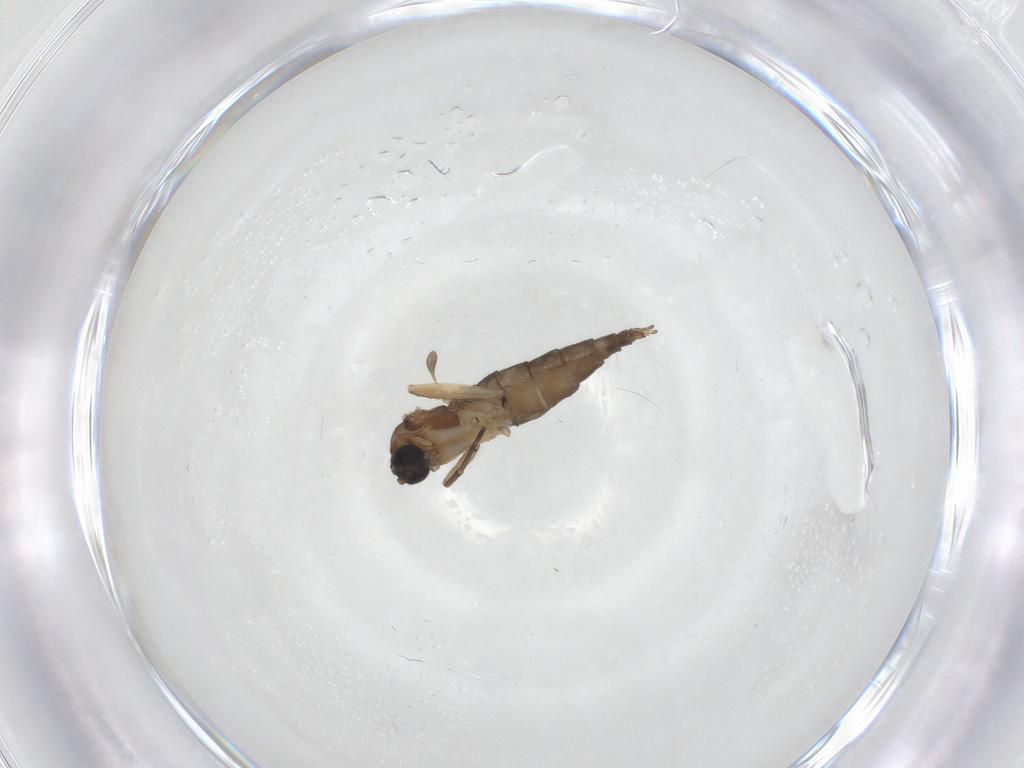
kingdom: Animalia
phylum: Arthropoda
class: Insecta
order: Diptera
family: Sciaridae
